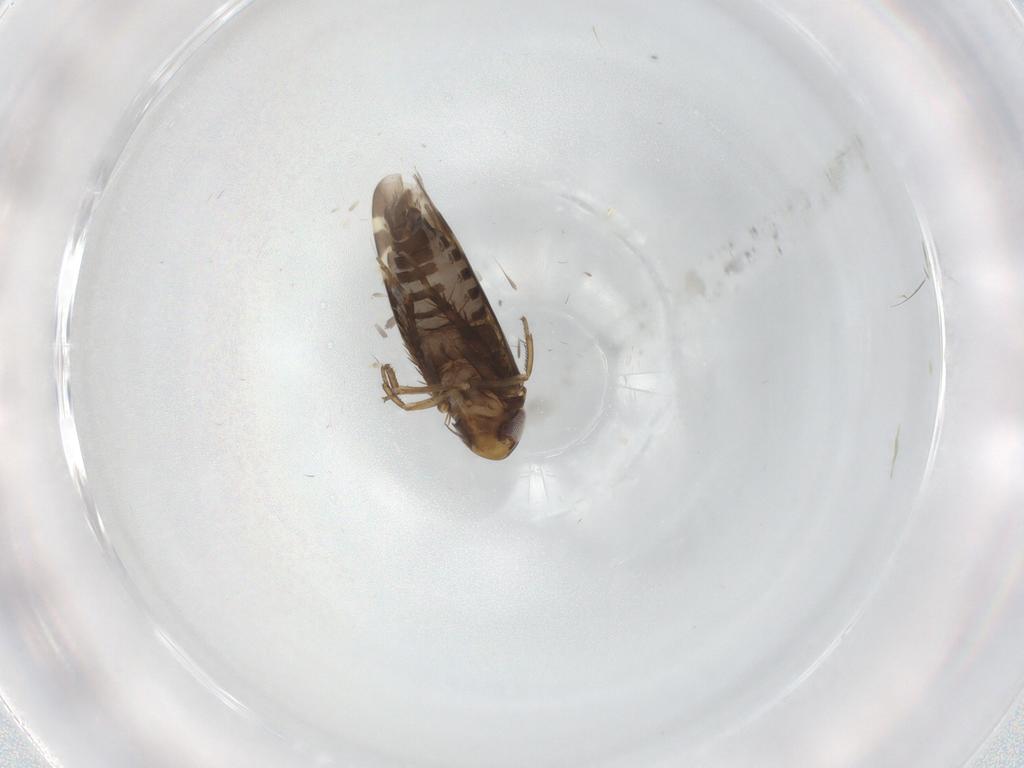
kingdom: Animalia
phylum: Arthropoda
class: Insecta
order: Hemiptera
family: Cicadellidae
